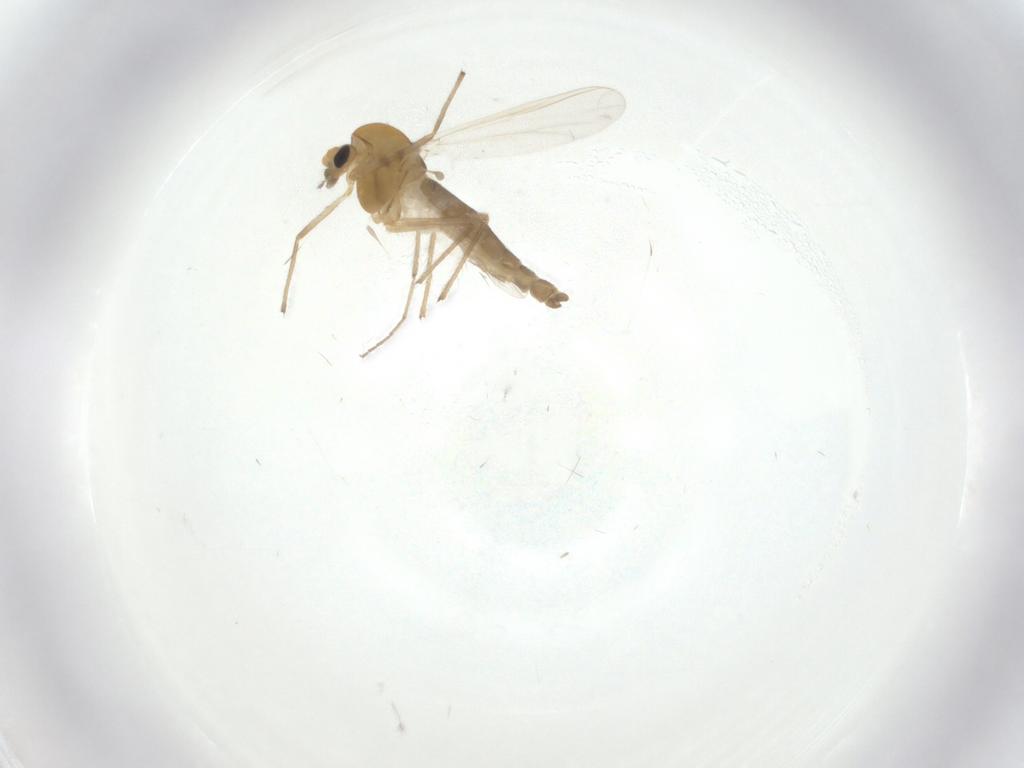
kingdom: Animalia
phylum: Arthropoda
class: Insecta
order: Diptera
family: Chironomidae
